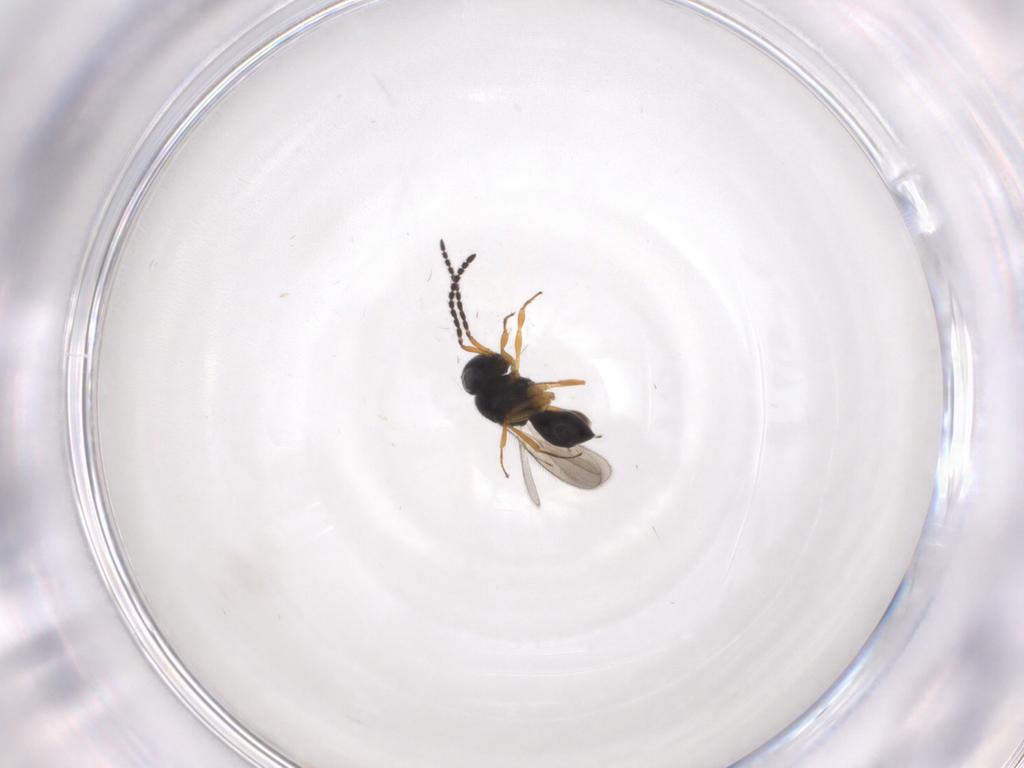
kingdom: Animalia
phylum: Arthropoda
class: Insecta
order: Hymenoptera
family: Scelionidae
